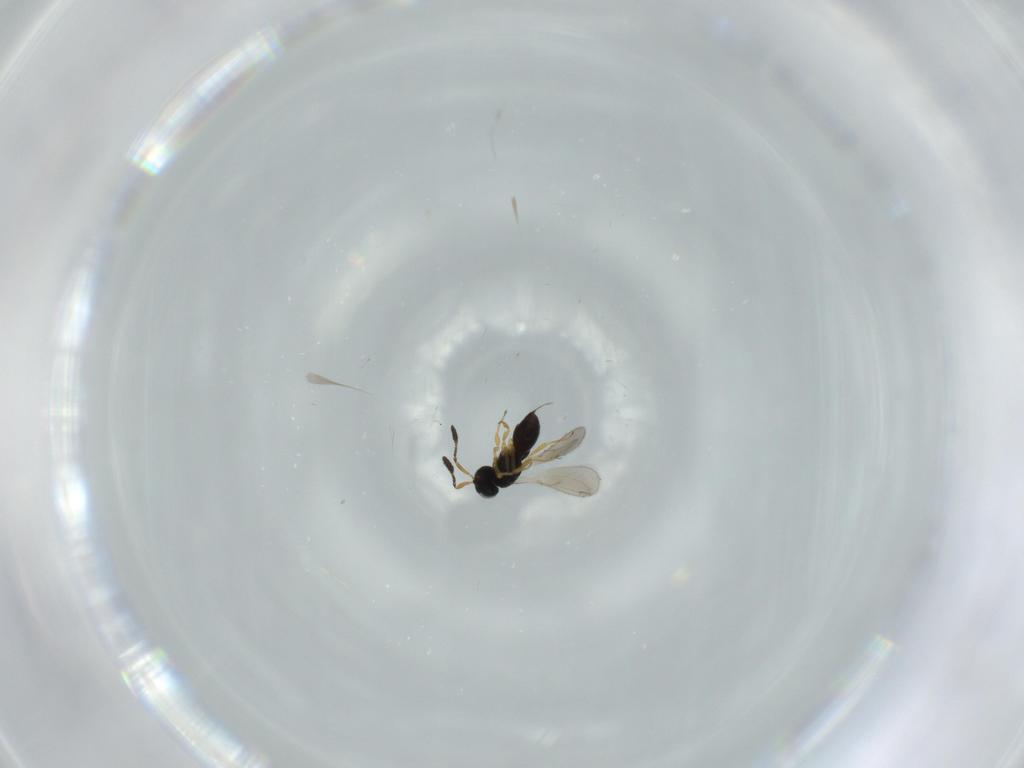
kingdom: Animalia
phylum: Arthropoda
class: Insecta
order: Hymenoptera
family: Scelionidae
